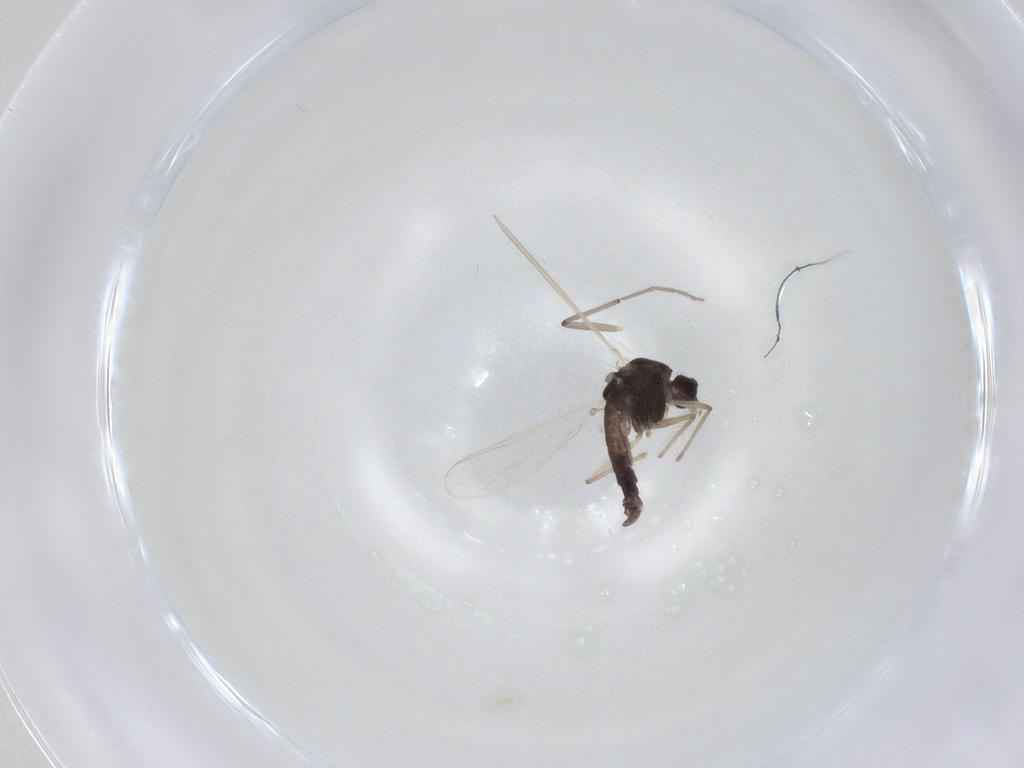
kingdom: Animalia
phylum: Arthropoda
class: Insecta
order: Diptera
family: Chironomidae
